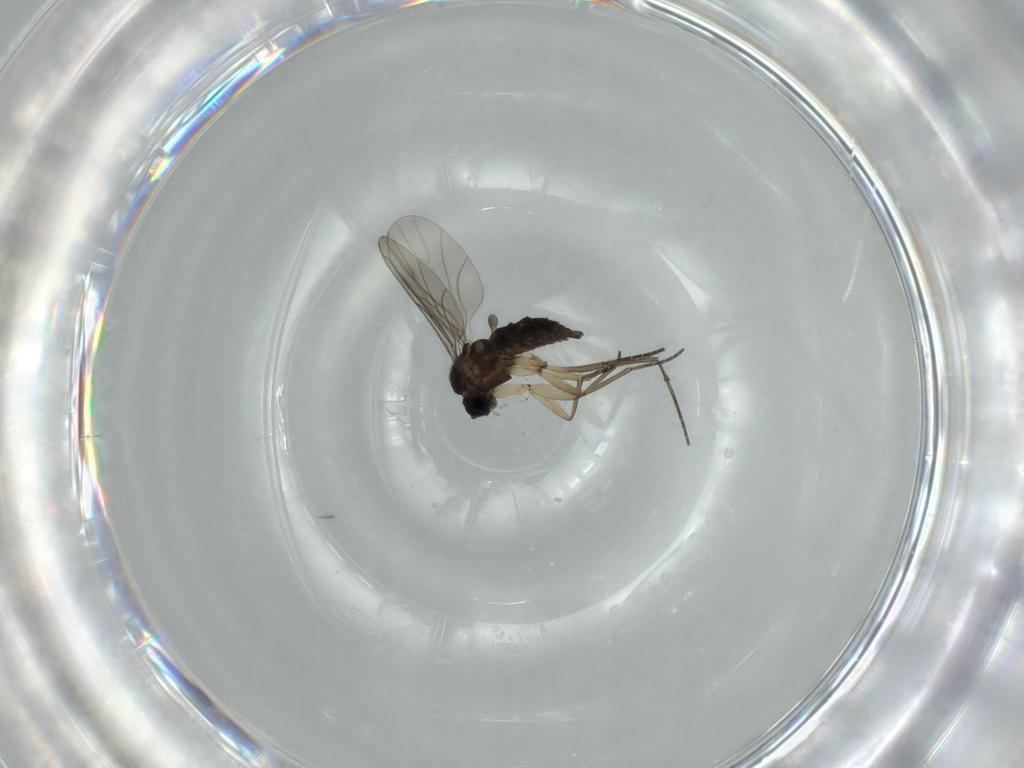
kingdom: Animalia
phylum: Arthropoda
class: Insecta
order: Diptera
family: Sciaridae
